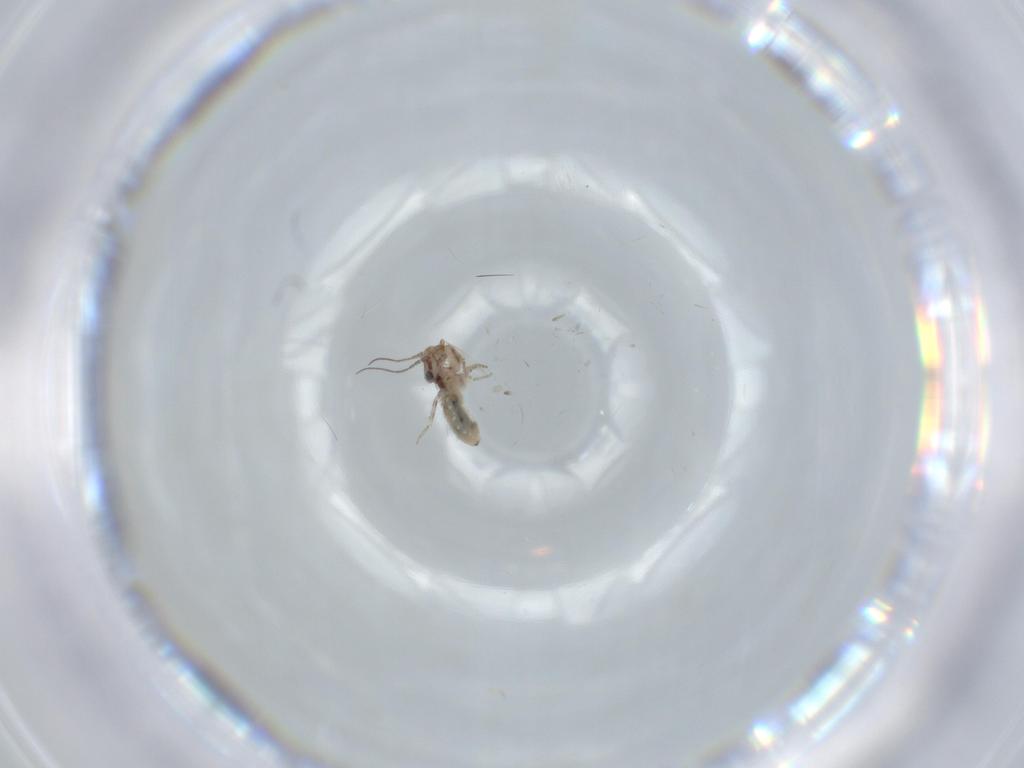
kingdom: Animalia
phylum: Arthropoda
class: Insecta
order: Psocodea
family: Lepidopsocidae
